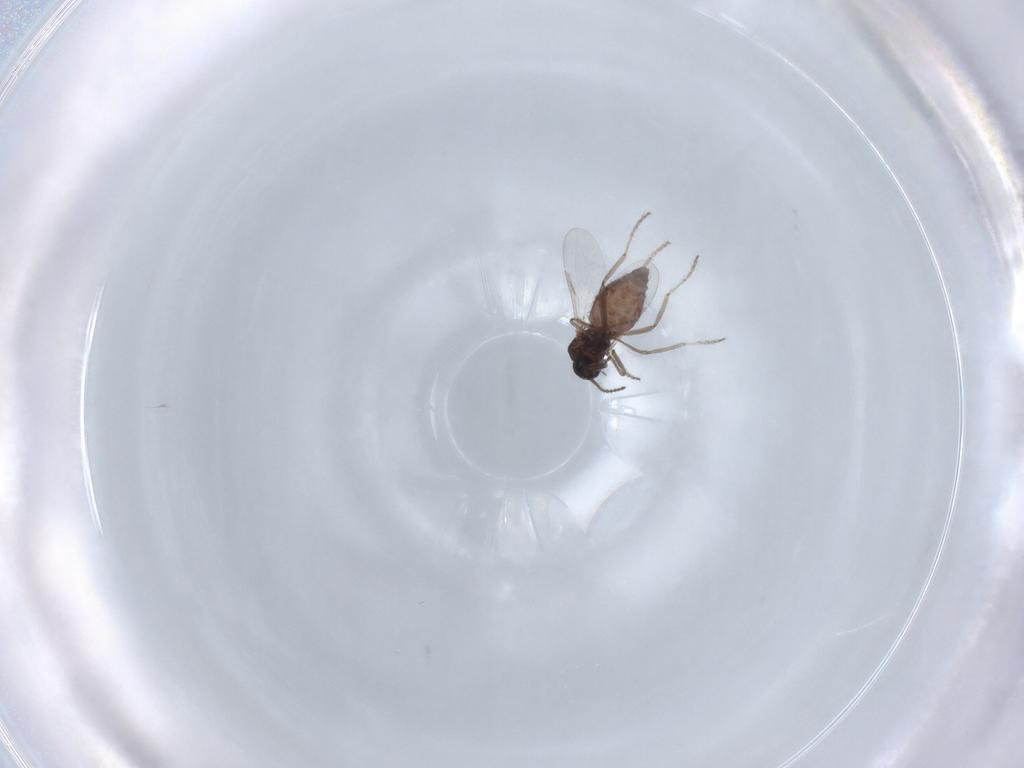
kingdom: Animalia
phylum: Arthropoda
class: Insecta
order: Diptera
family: Ceratopogonidae
